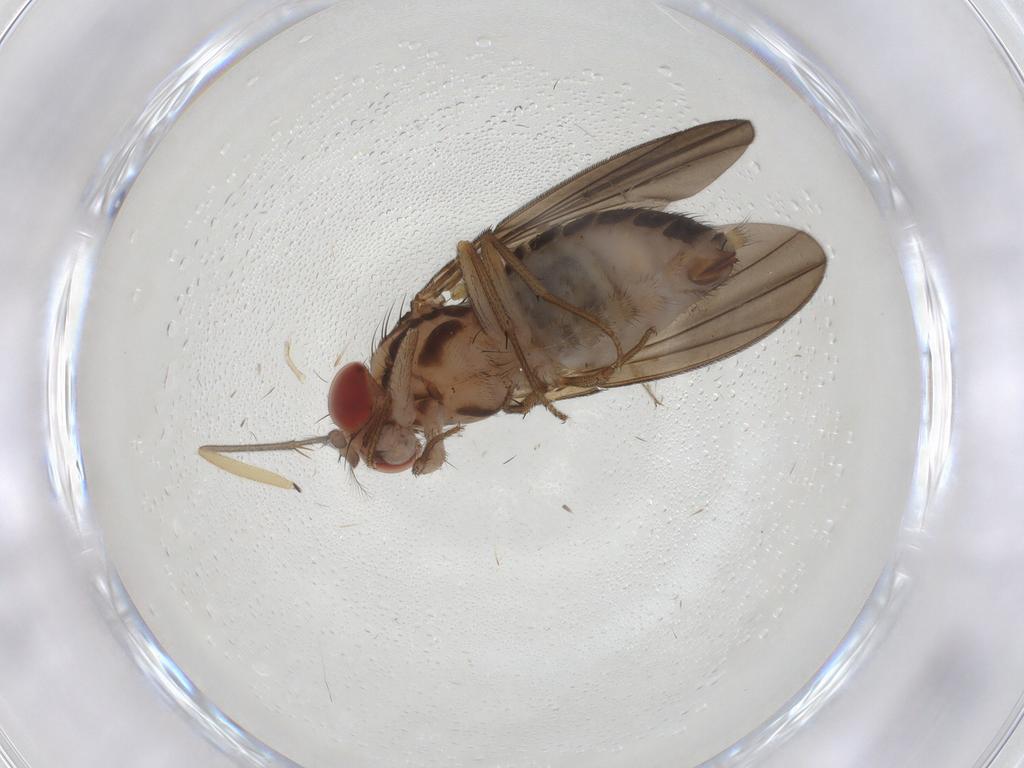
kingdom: Animalia
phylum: Arthropoda
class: Insecta
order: Diptera
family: Drosophilidae
